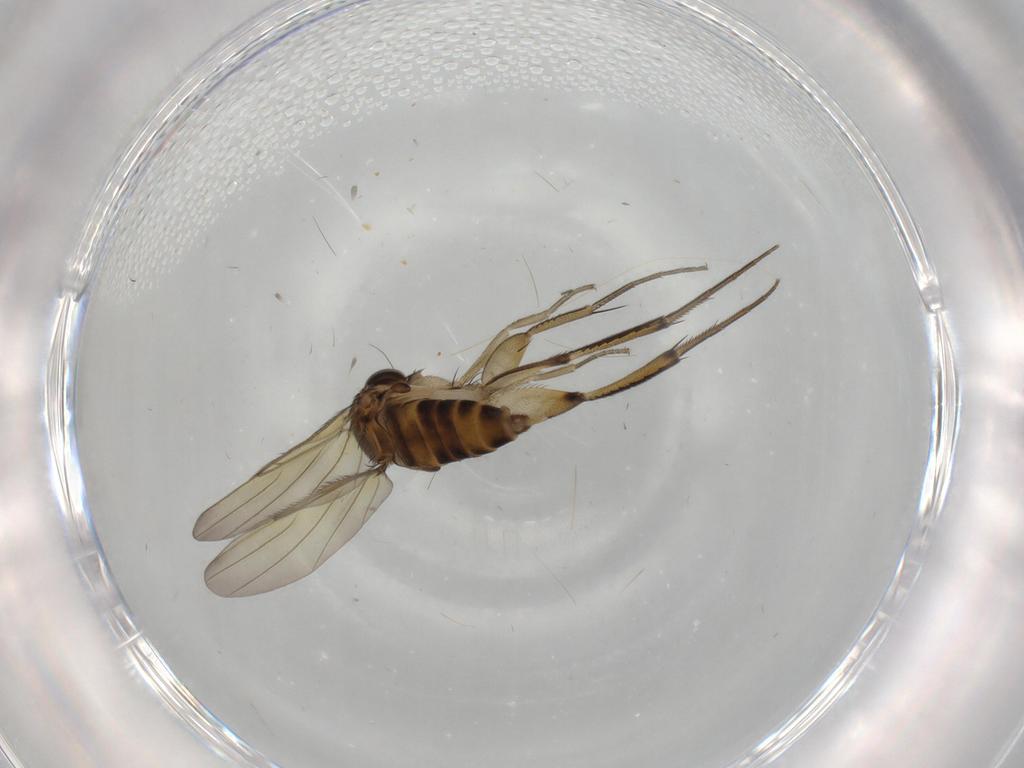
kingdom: Animalia
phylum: Arthropoda
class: Insecta
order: Diptera
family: Phoridae
